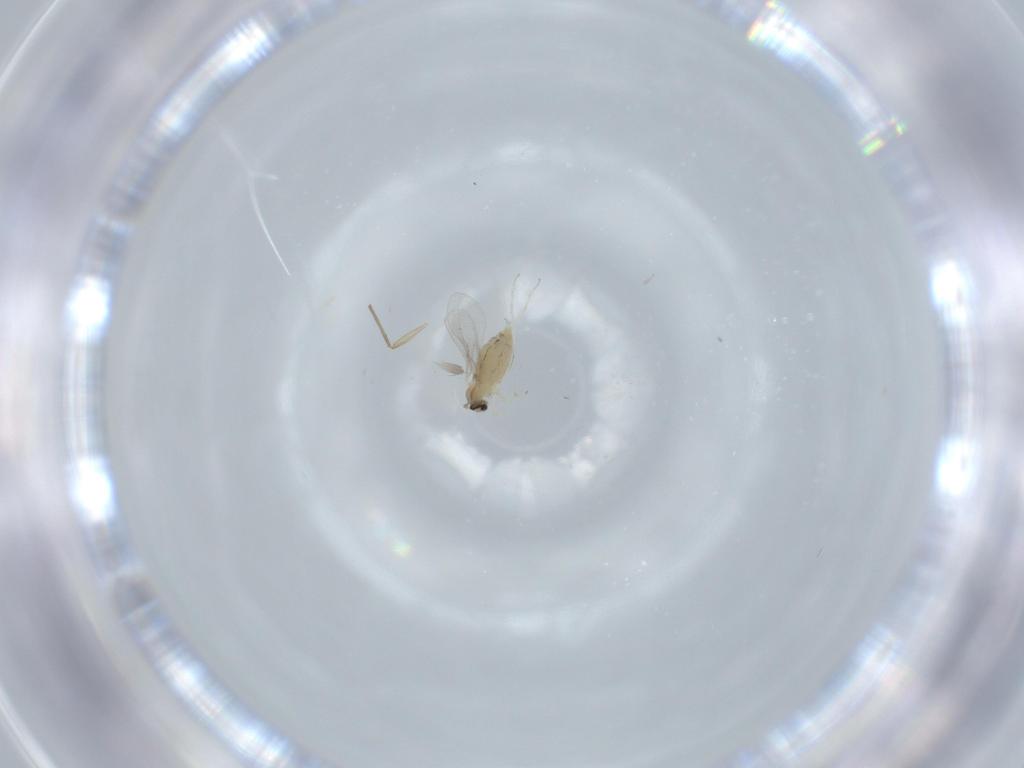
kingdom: Animalia
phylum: Arthropoda
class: Insecta
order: Diptera
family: Cecidomyiidae
